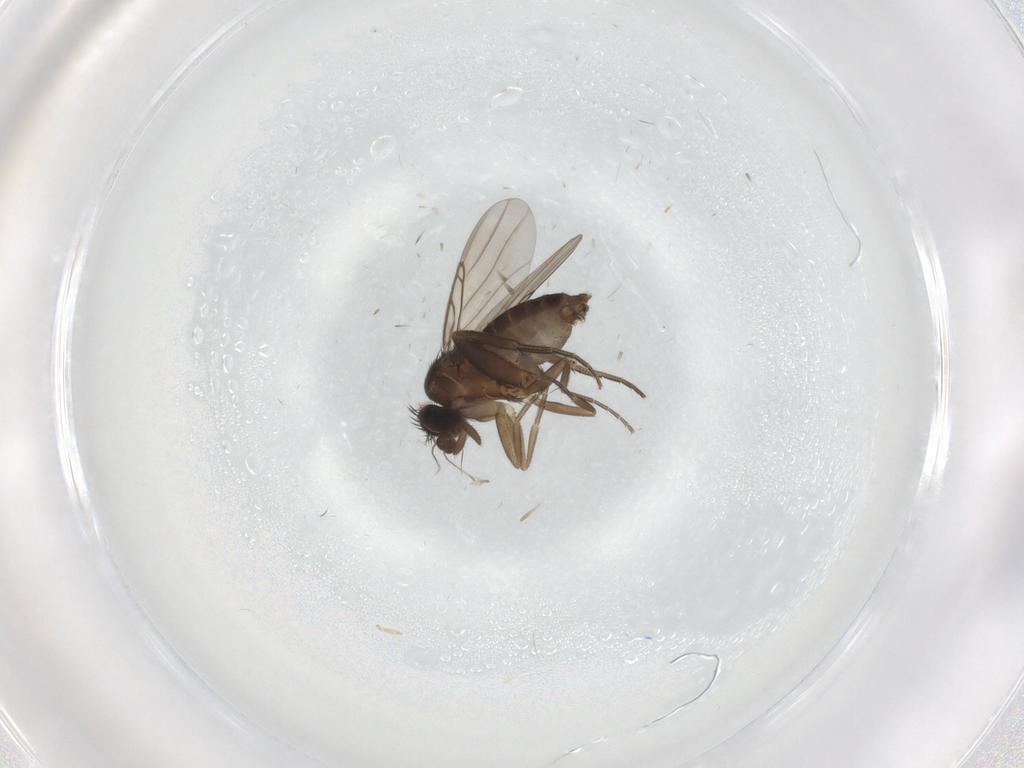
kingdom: Animalia
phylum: Arthropoda
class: Insecta
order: Diptera
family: Phoridae
